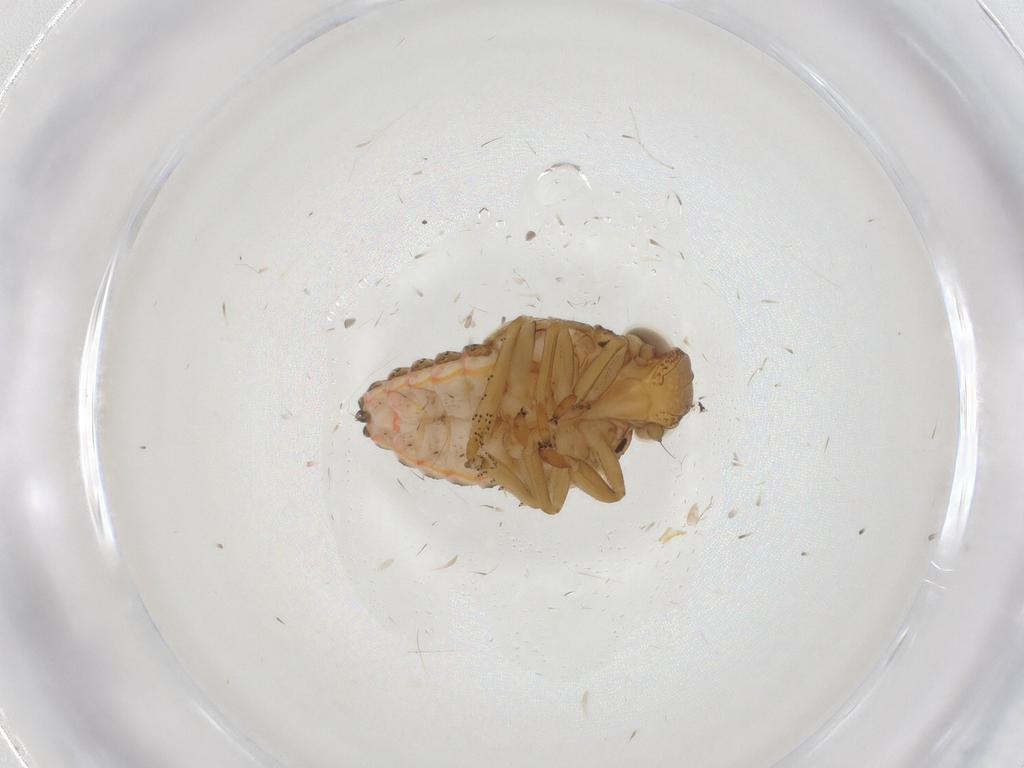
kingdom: Animalia
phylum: Arthropoda
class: Insecta
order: Hemiptera
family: Issidae
